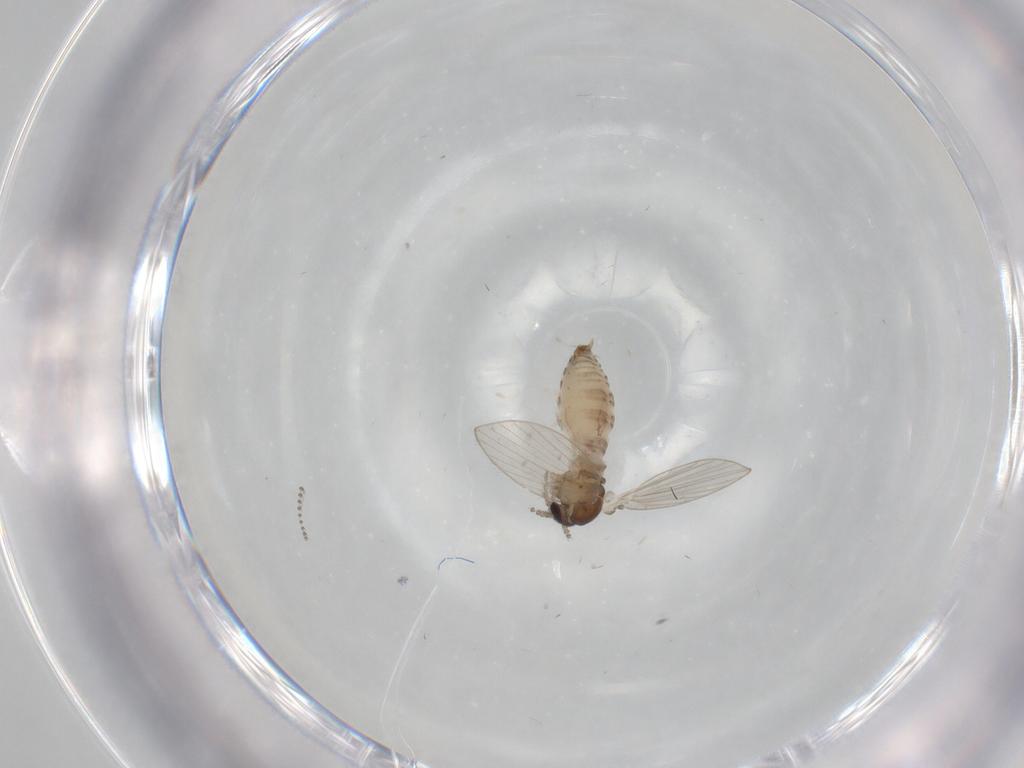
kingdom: Animalia
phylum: Arthropoda
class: Insecta
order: Diptera
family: Psychodidae
